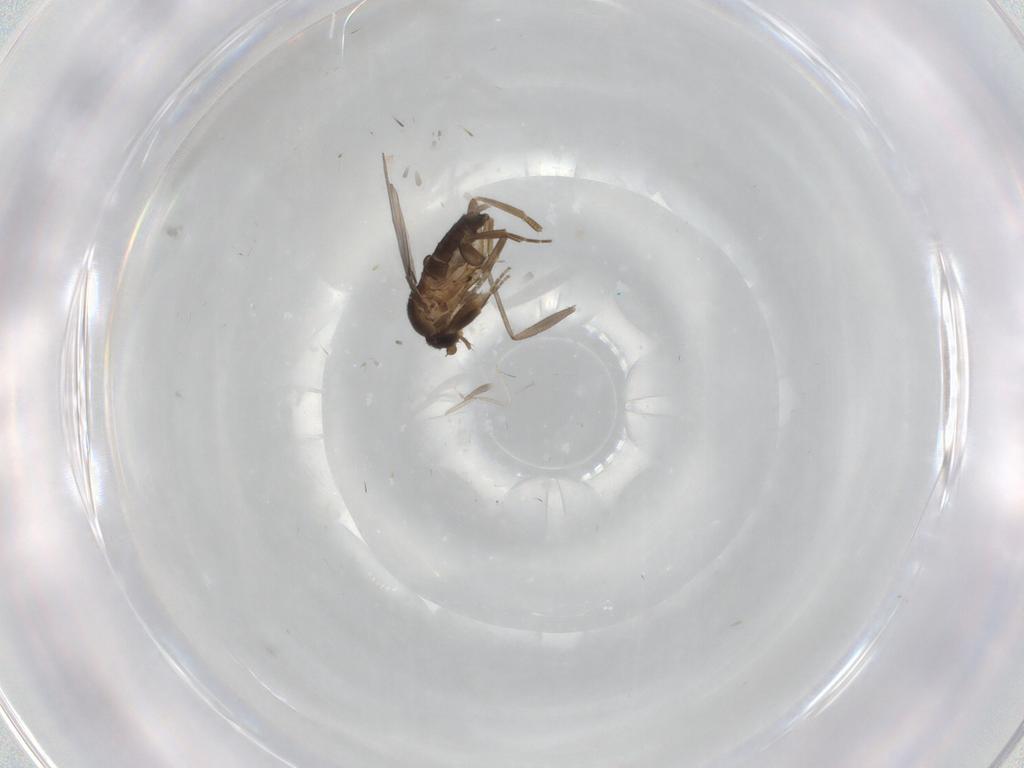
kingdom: Animalia
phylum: Arthropoda
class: Insecta
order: Diptera
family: Sciaridae
